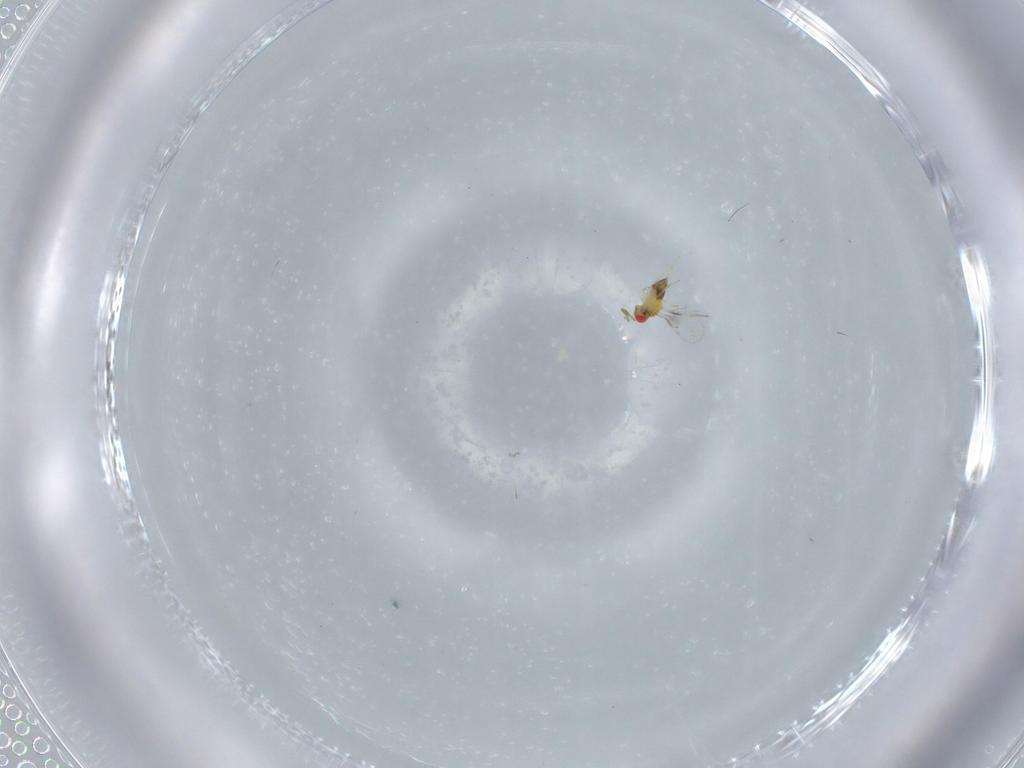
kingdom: Animalia
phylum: Arthropoda
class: Insecta
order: Hymenoptera
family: Trichogrammatidae
